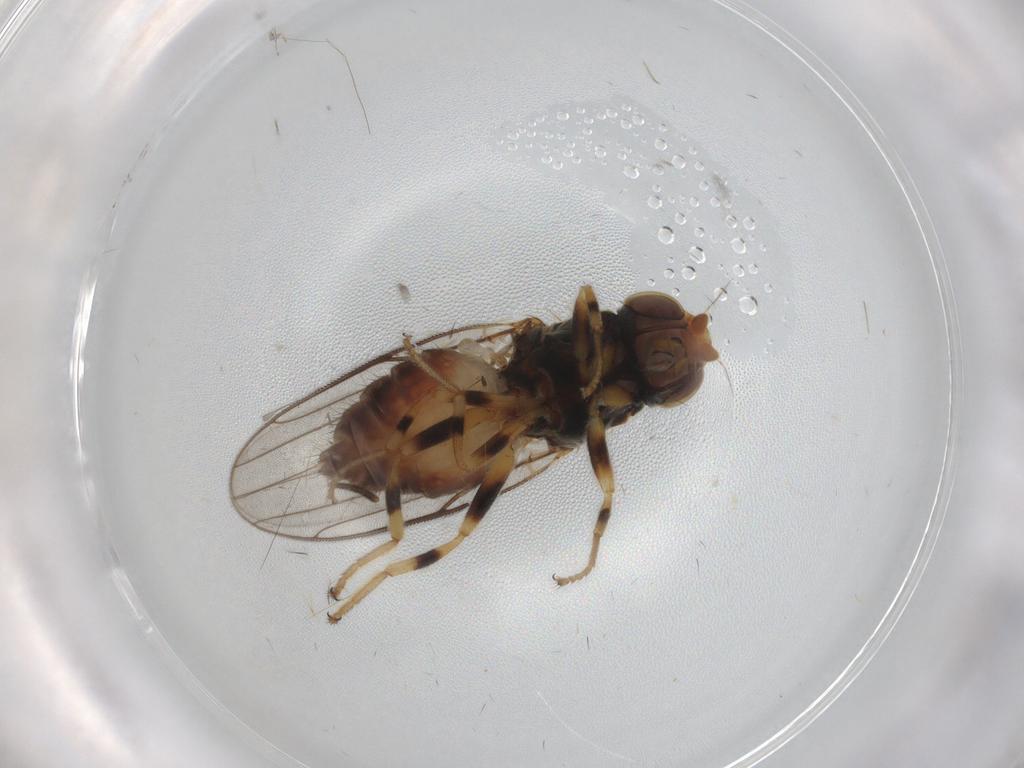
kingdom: Animalia
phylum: Arthropoda
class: Insecta
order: Diptera
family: Chloropidae
